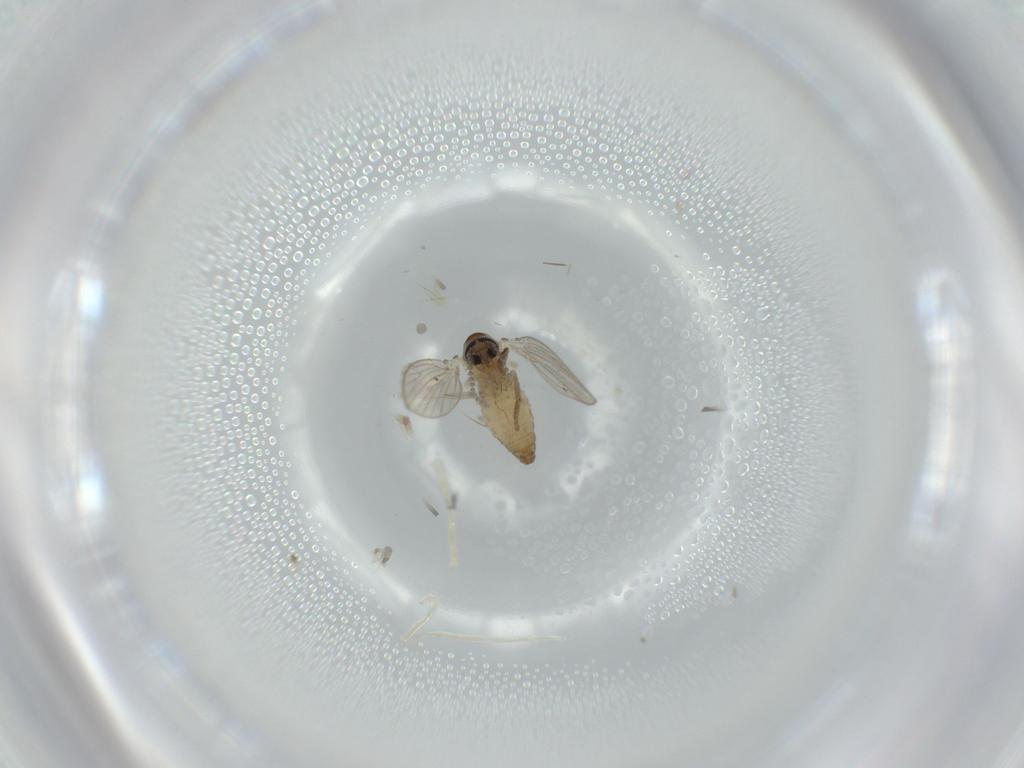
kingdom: Animalia
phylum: Arthropoda
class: Insecta
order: Diptera
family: Psychodidae
